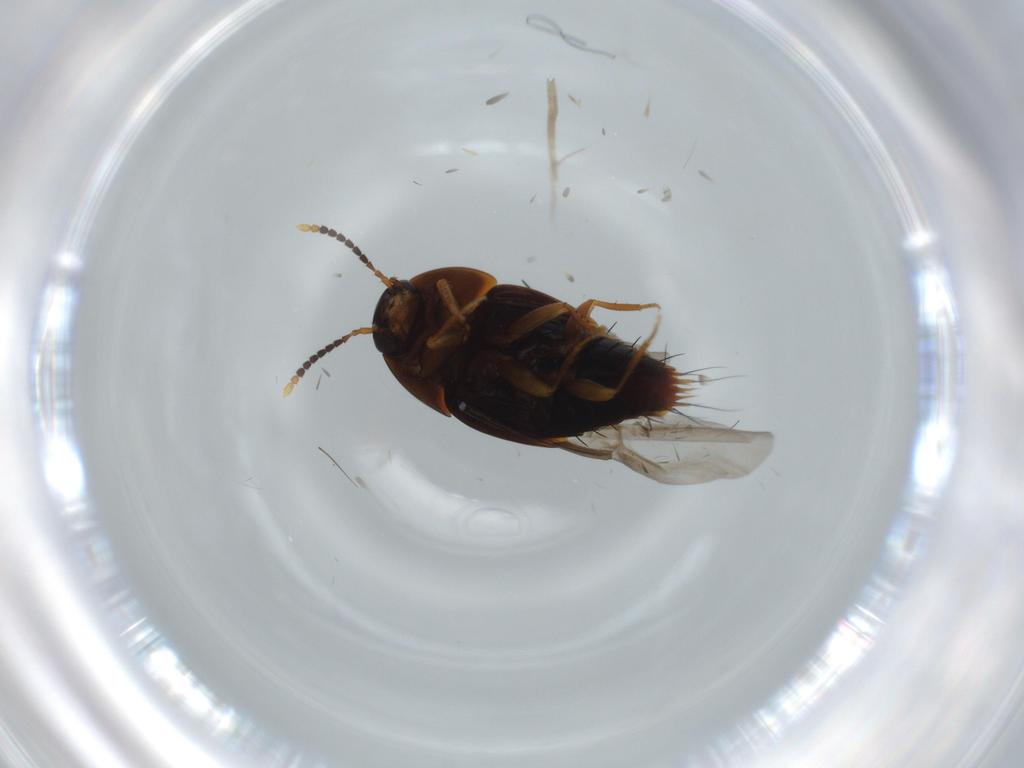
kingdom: Animalia
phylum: Arthropoda
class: Insecta
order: Coleoptera
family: Staphylinidae
